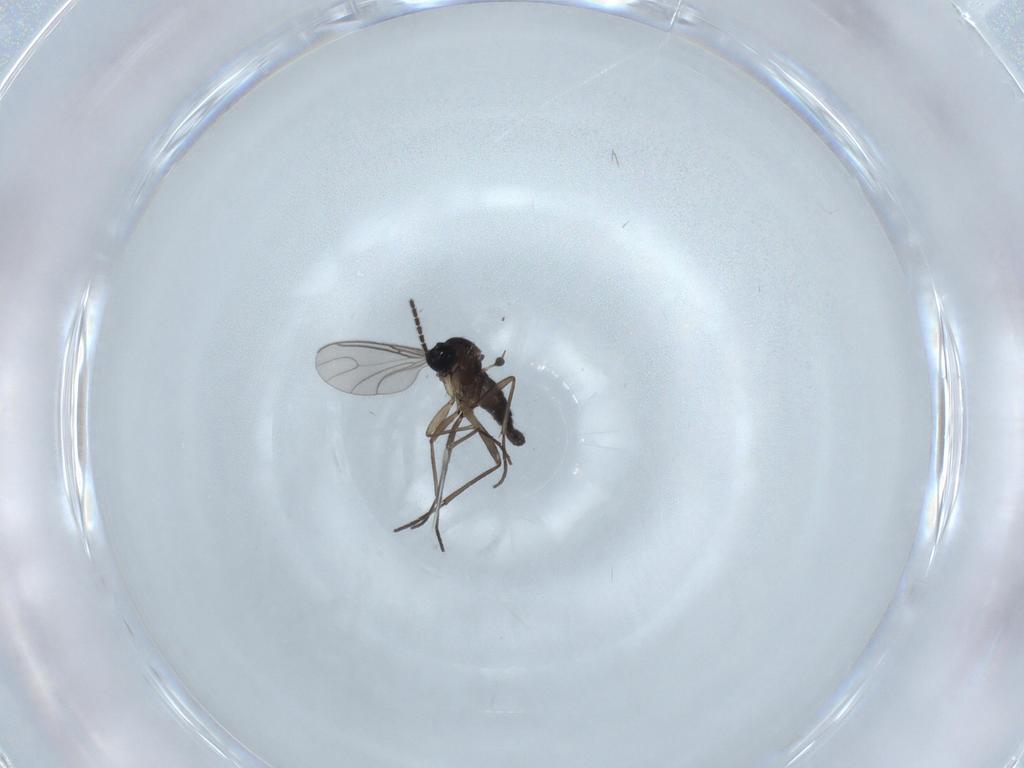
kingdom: Animalia
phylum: Arthropoda
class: Insecta
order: Diptera
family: Sciaridae
